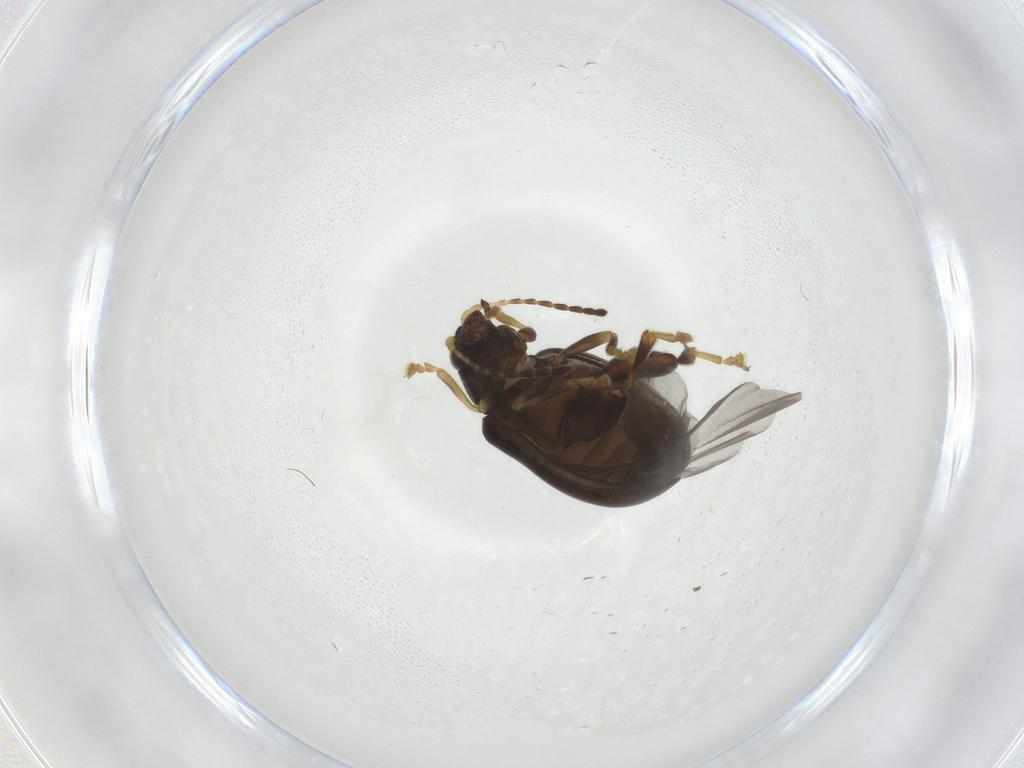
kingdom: Animalia
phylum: Arthropoda
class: Insecta
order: Coleoptera
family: Chrysomelidae
